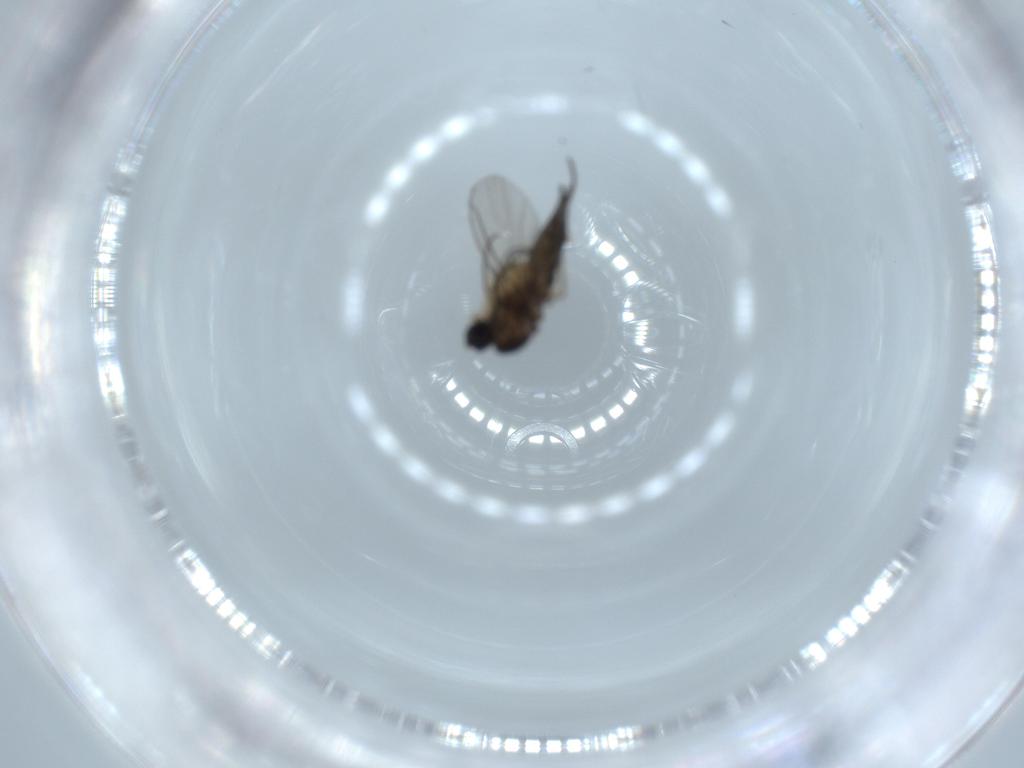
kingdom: Animalia
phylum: Arthropoda
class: Insecta
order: Diptera
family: Sciaridae
